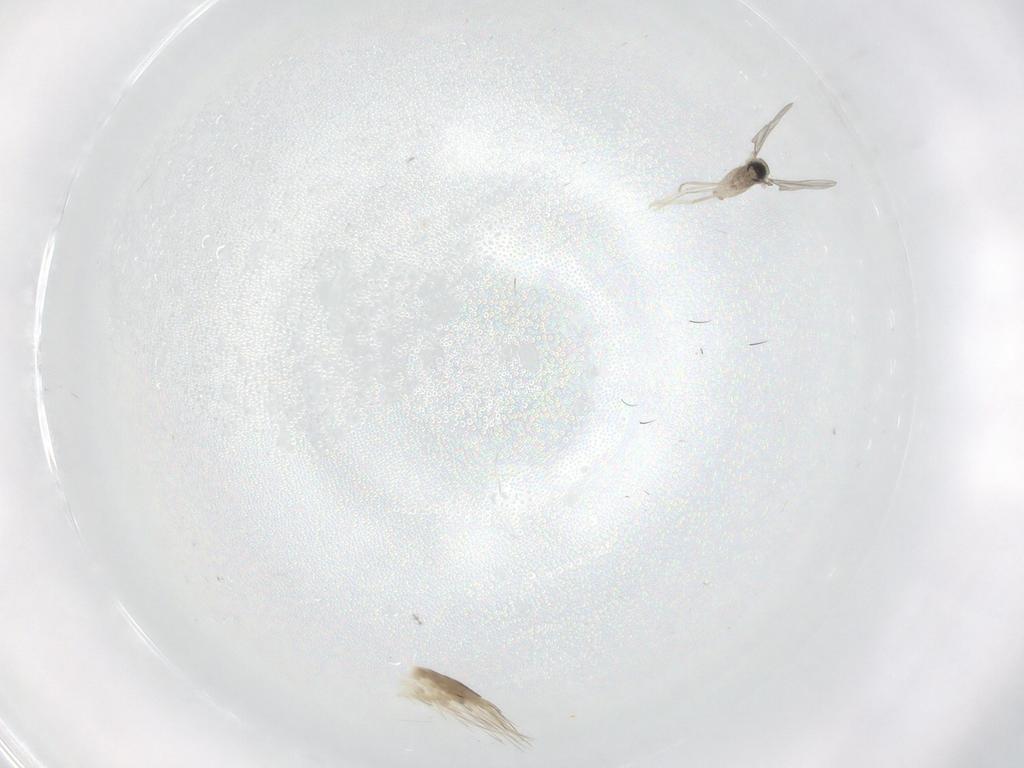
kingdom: Animalia
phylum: Arthropoda
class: Insecta
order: Diptera
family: Cecidomyiidae
